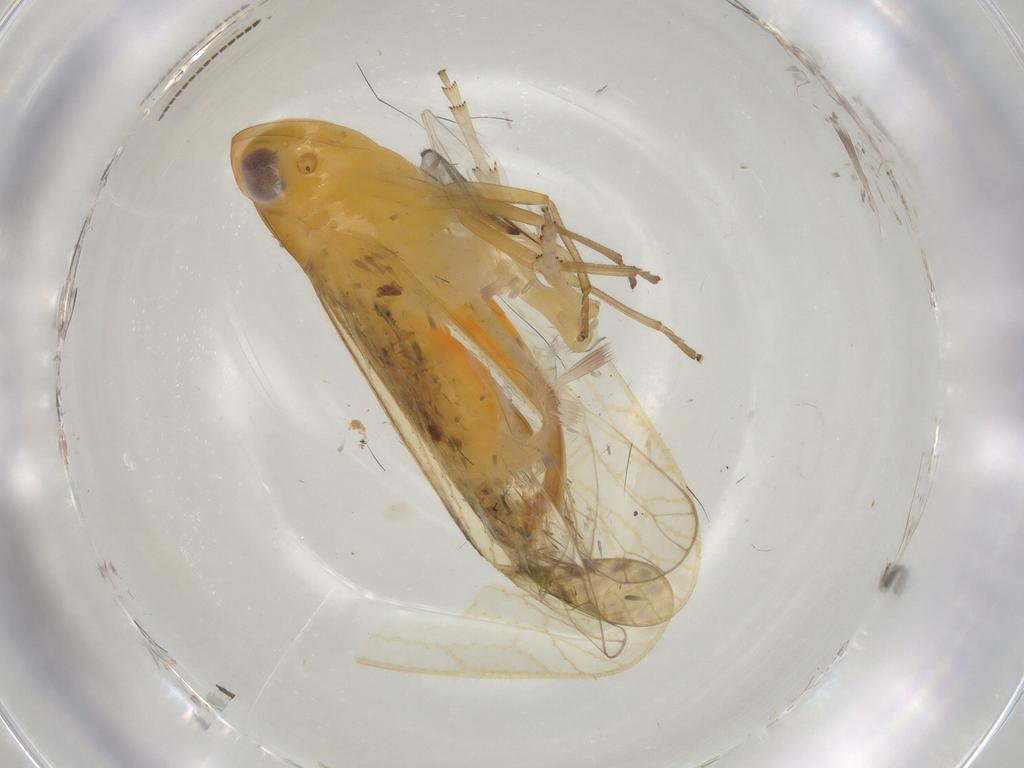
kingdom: Animalia
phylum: Arthropoda
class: Insecta
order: Hemiptera
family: Cixiidae
